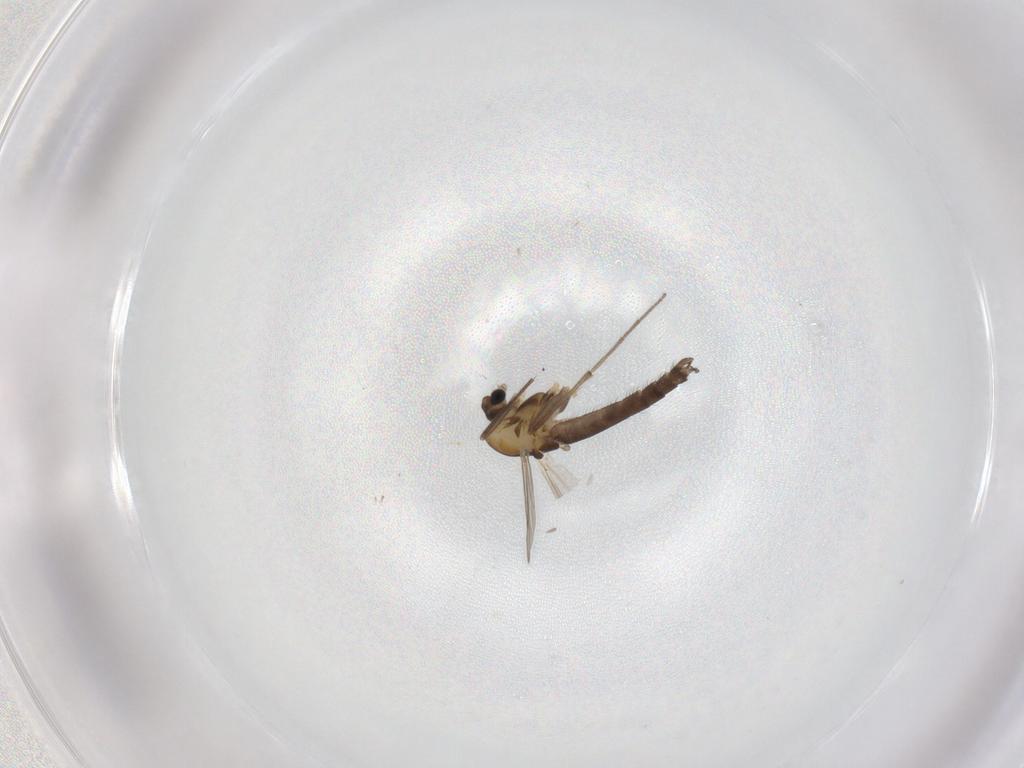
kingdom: Animalia
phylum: Arthropoda
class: Insecta
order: Diptera
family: Chironomidae
